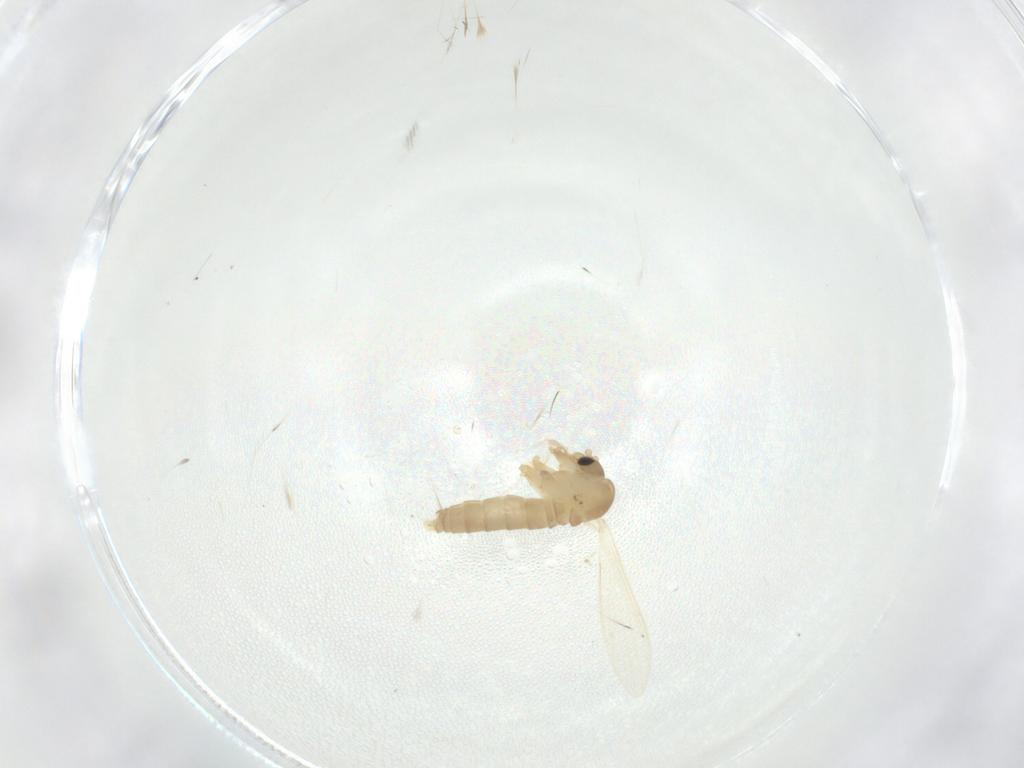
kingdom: Animalia
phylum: Arthropoda
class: Insecta
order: Diptera
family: Psychodidae
